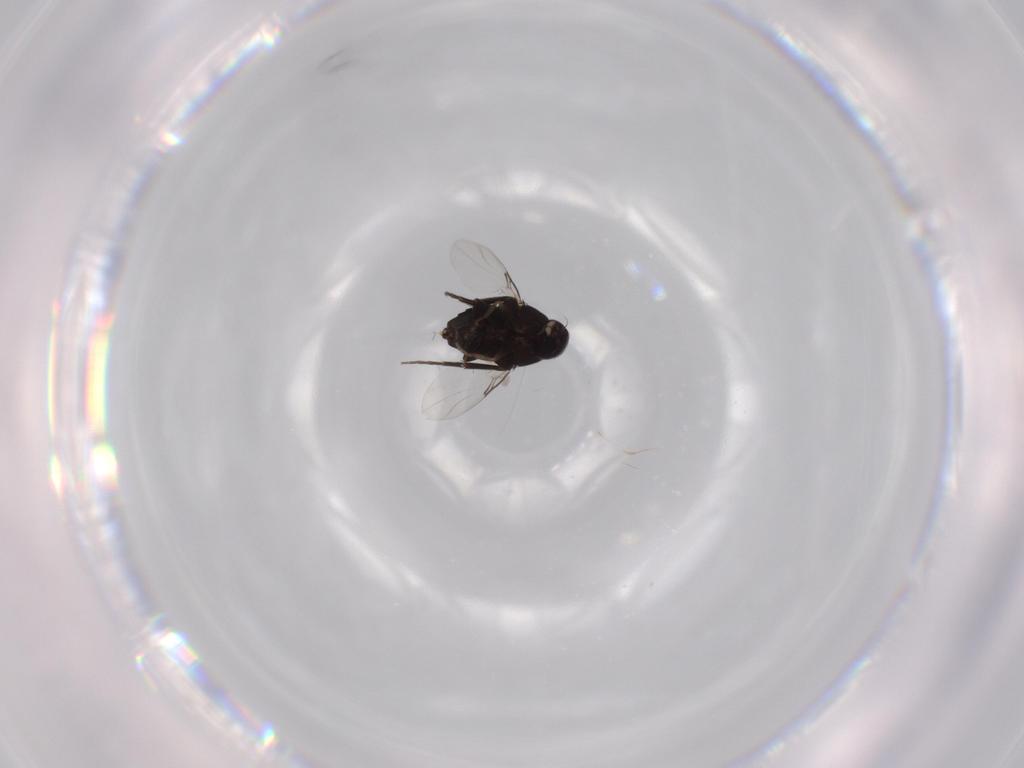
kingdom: Animalia
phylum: Arthropoda
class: Insecta
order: Diptera
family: Phoridae
